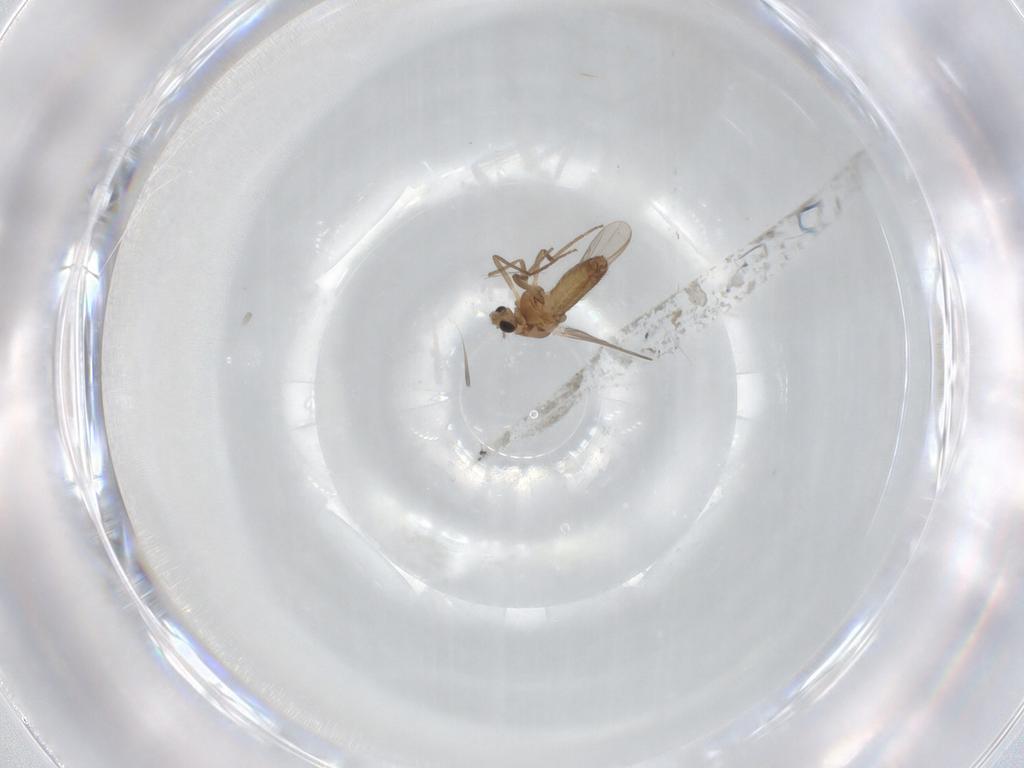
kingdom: Animalia
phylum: Arthropoda
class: Insecta
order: Diptera
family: Chironomidae
